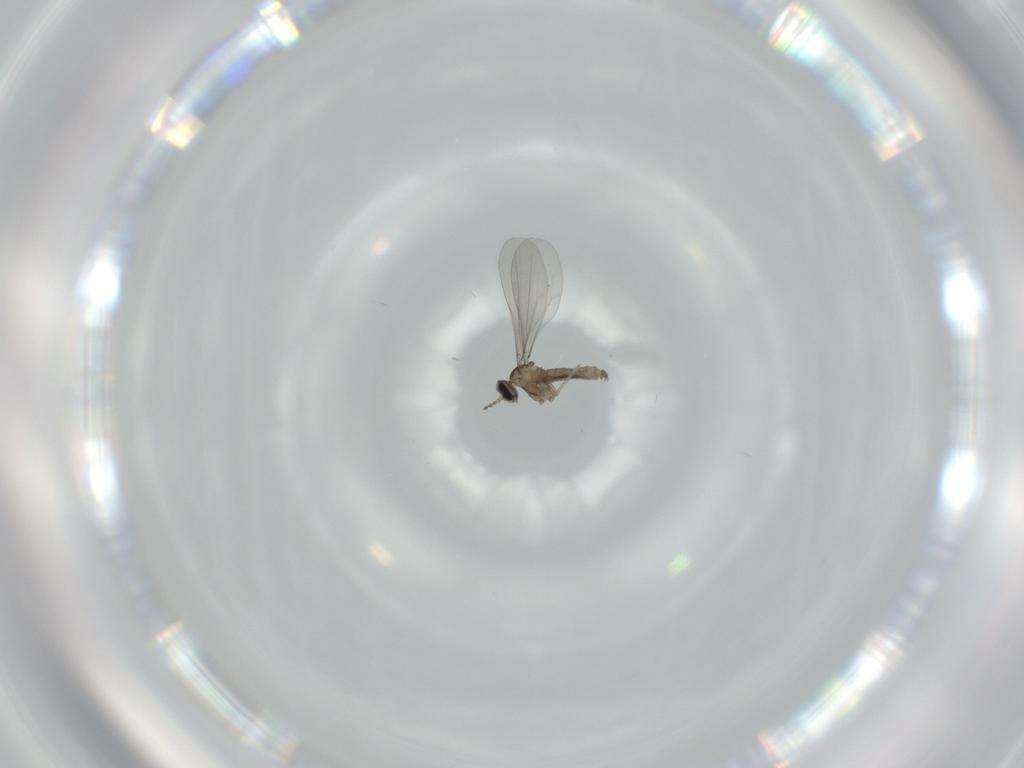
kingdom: Animalia
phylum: Arthropoda
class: Insecta
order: Diptera
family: Cecidomyiidae
